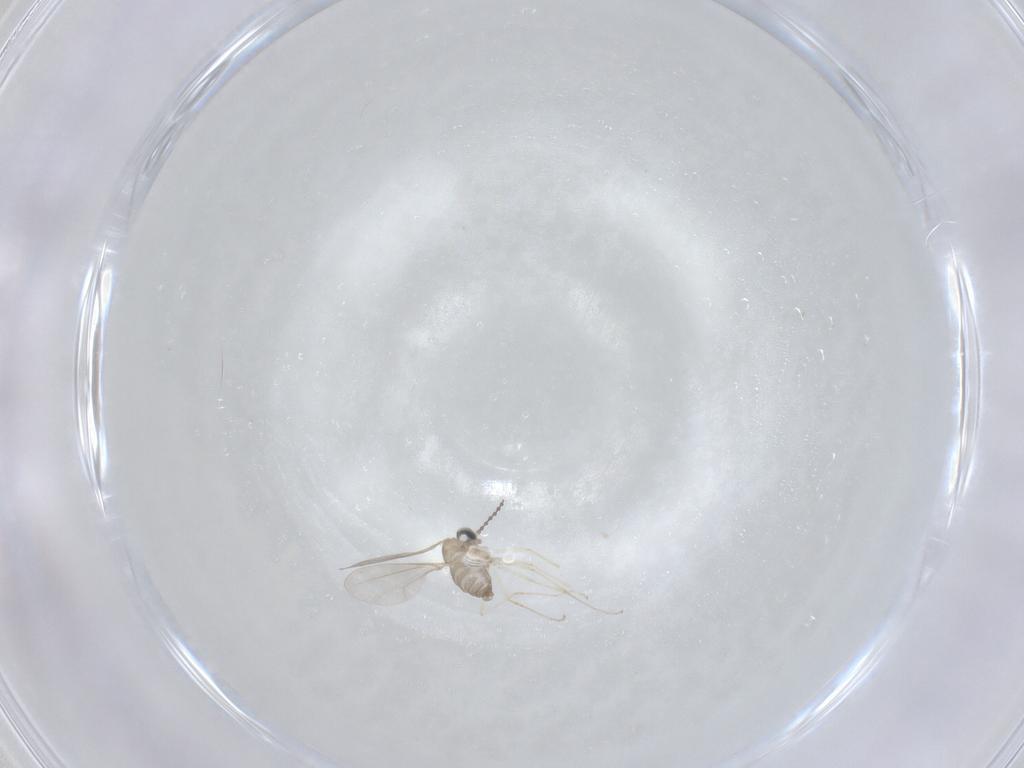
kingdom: Animalia
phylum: Arthropoda
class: Insecta
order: Diptera
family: Cecidomyiidae
